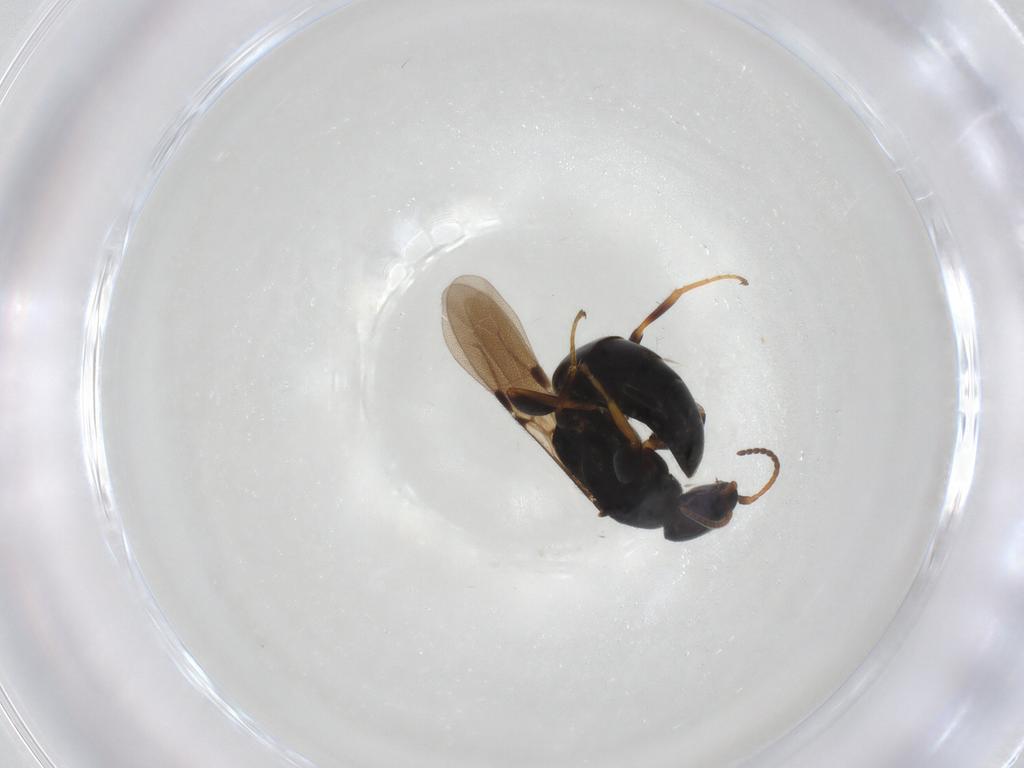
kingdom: Animalia
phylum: Arthropoda
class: Insecta
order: Hymenoptera
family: Bethylidae
